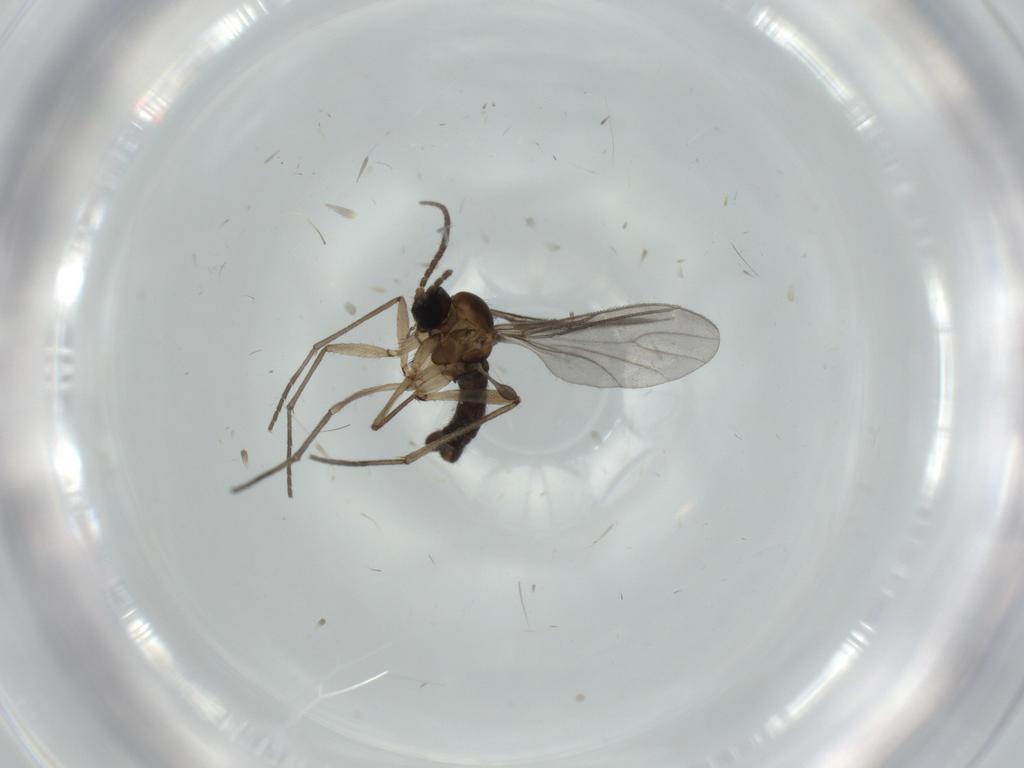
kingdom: Animalia
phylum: Arthropoda
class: Insecta
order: Diptera
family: Sciaridae
